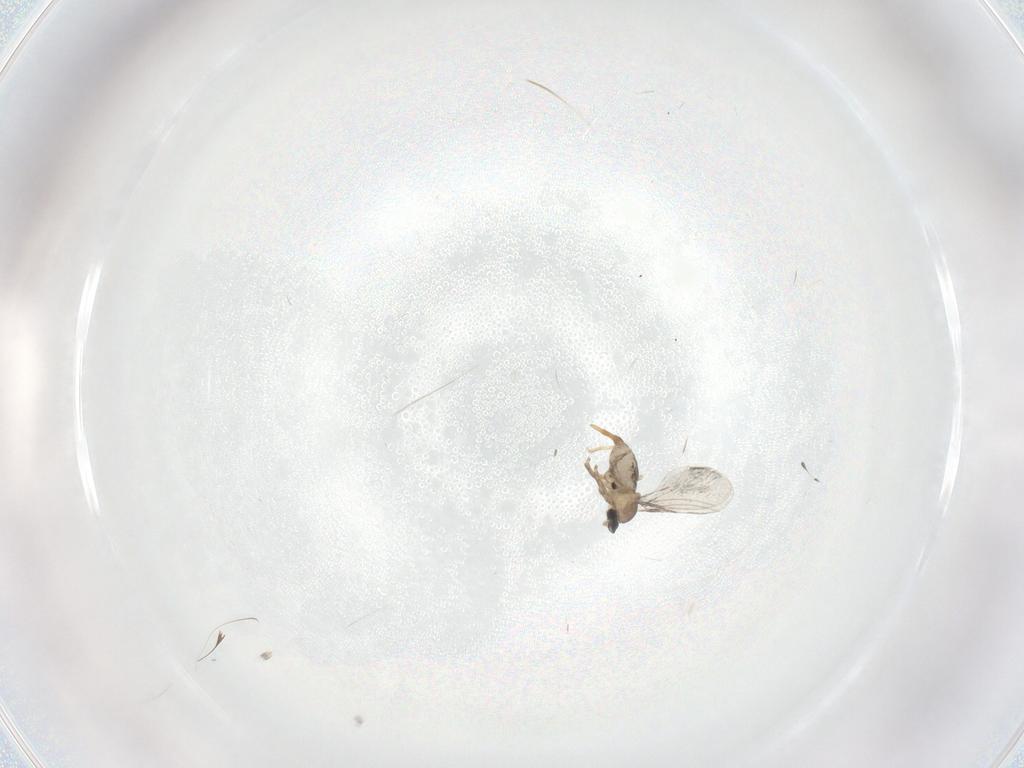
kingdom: Animalia
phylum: Arthropoda
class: Insecta
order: Diptera
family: Cecidomyiidae
